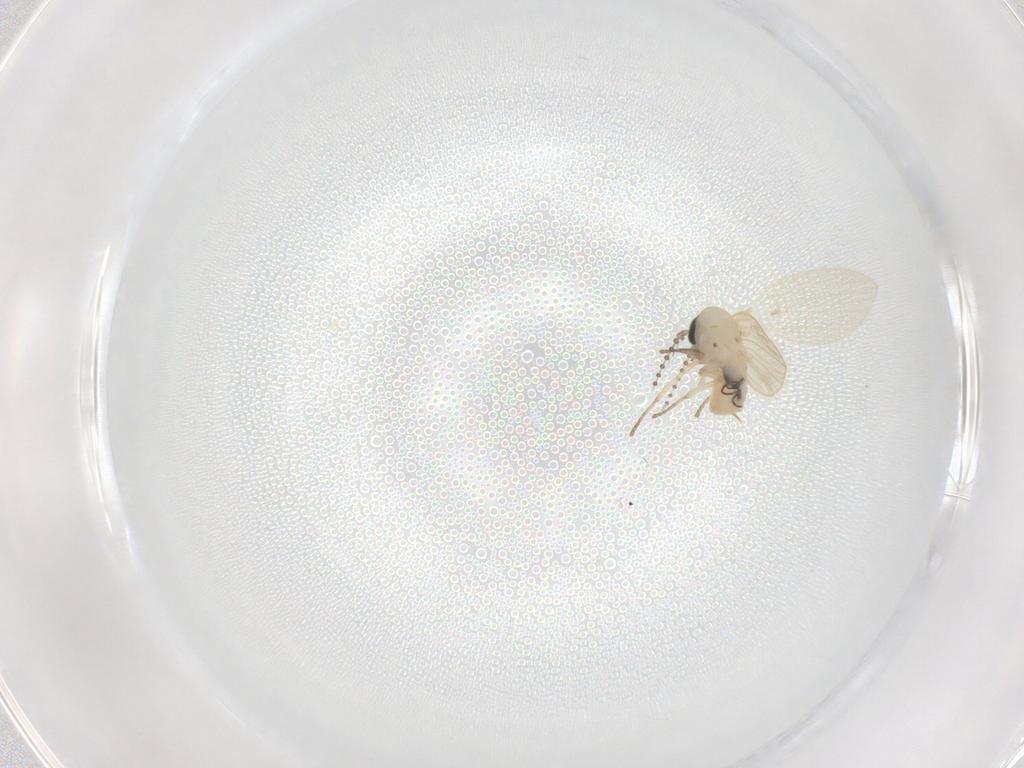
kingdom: Animalia
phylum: Arthropoda
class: Insecta
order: Diptera
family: Psychodidae
